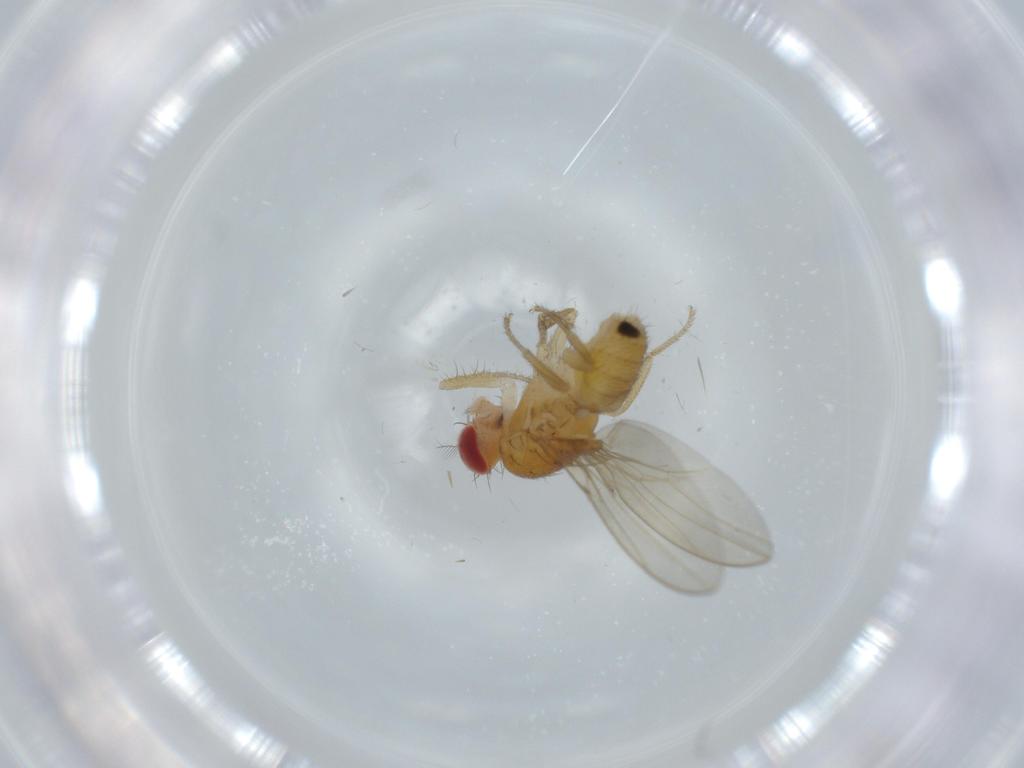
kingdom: Animalia
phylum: Arthropoda
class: Insecta
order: Diptera
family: Drosophilidae
